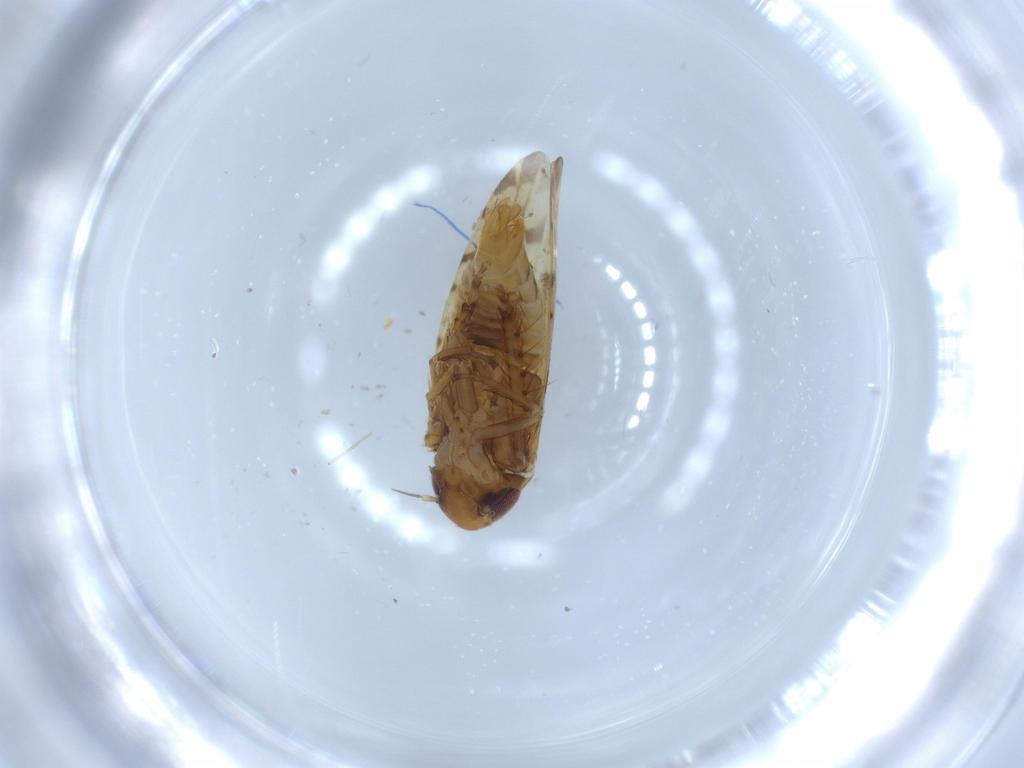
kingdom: Animalia
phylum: Arthropoda
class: Insecta
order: Hemiptera
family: Cicadellidae
